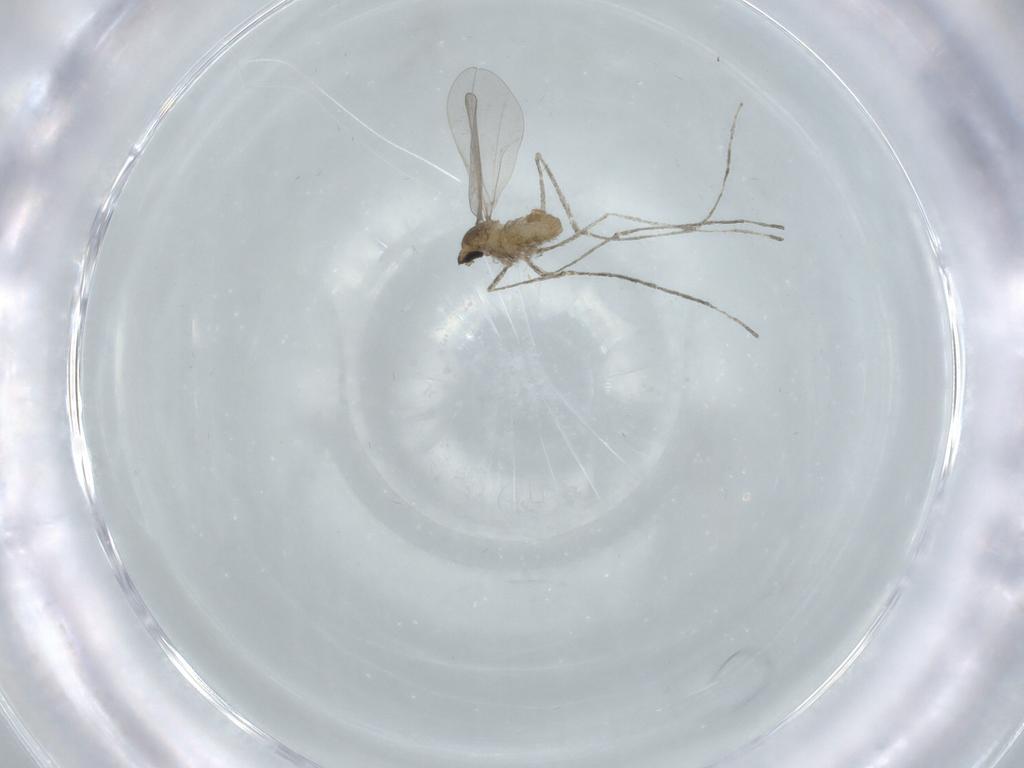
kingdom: Animalia
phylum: Arthropoda
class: Insecta
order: Diptera
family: Cecidomyiidae
